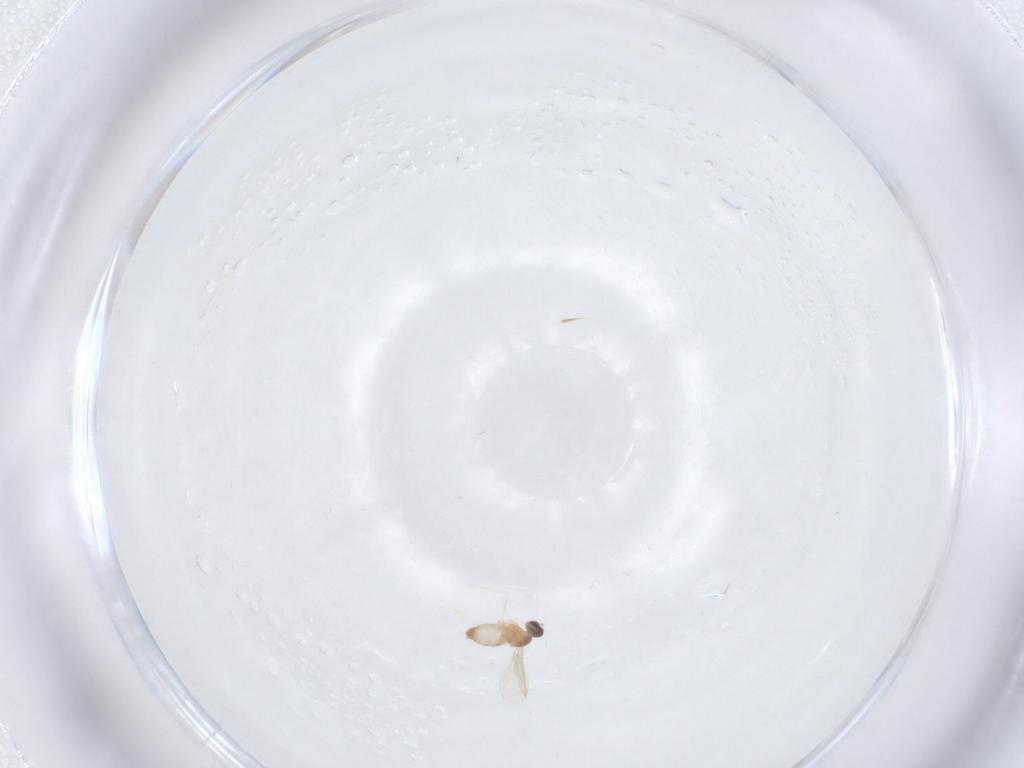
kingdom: Animalia
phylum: Arthropoda
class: Insecta
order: Diptera
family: Cecidomyiidae
